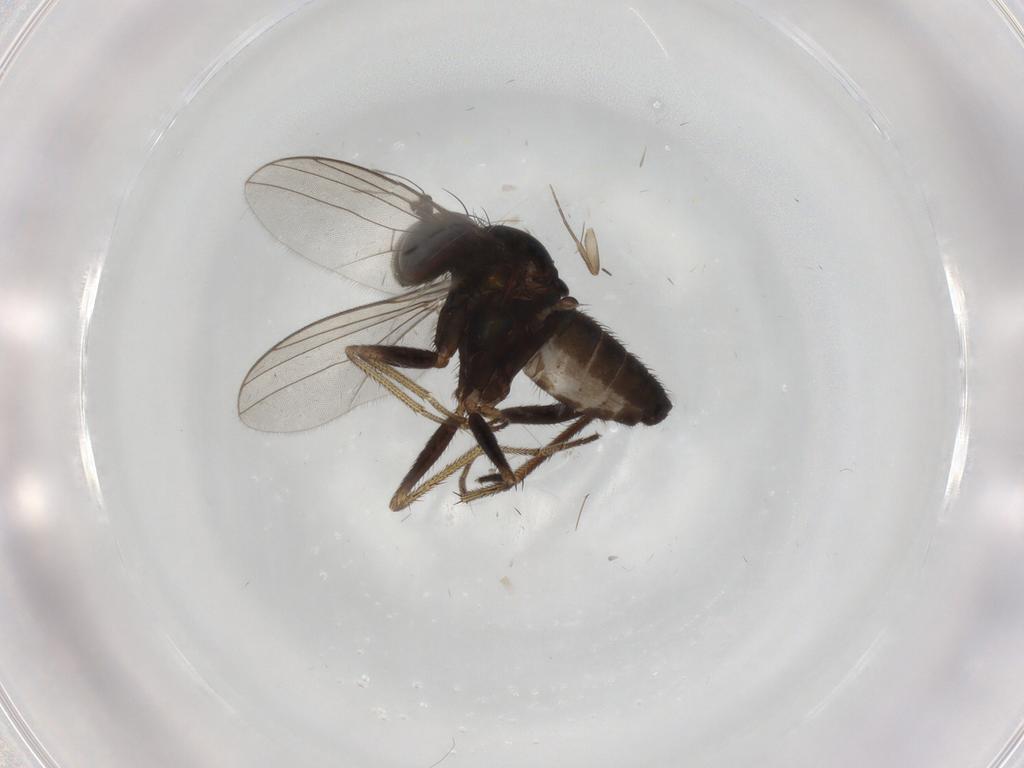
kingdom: Animalia
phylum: Arthropoda
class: Insecta
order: Diptera
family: Dolichopodidae
